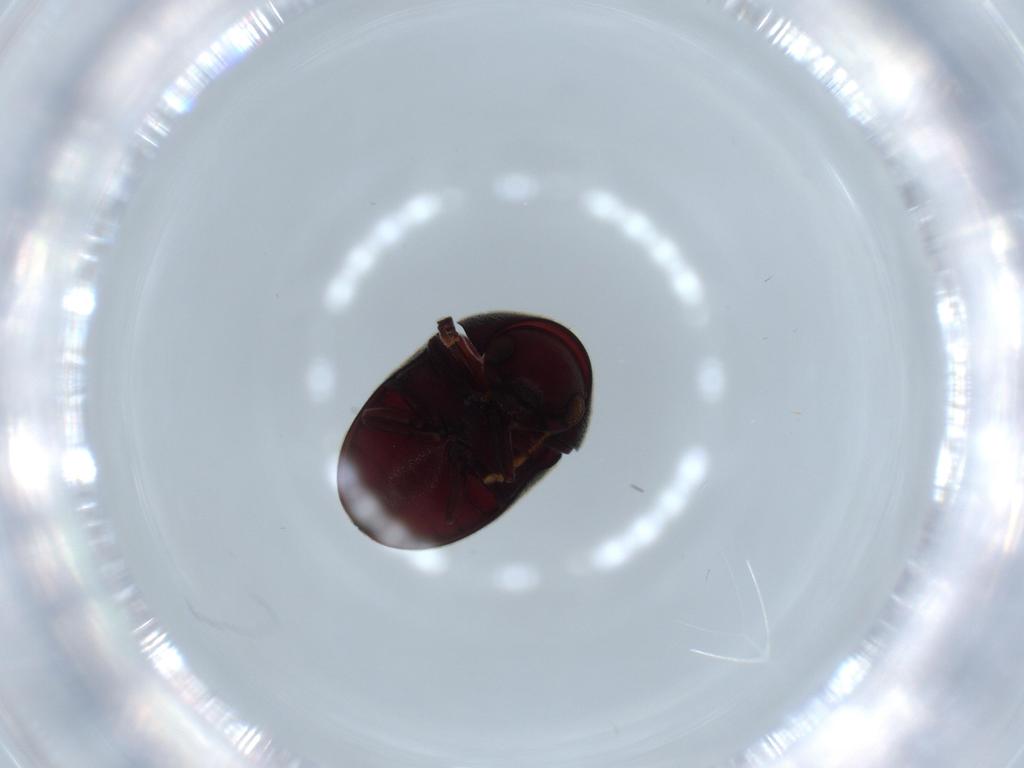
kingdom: Animalia
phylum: Arthropoda
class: Insecta
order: Coleoptera
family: Ptinidae
